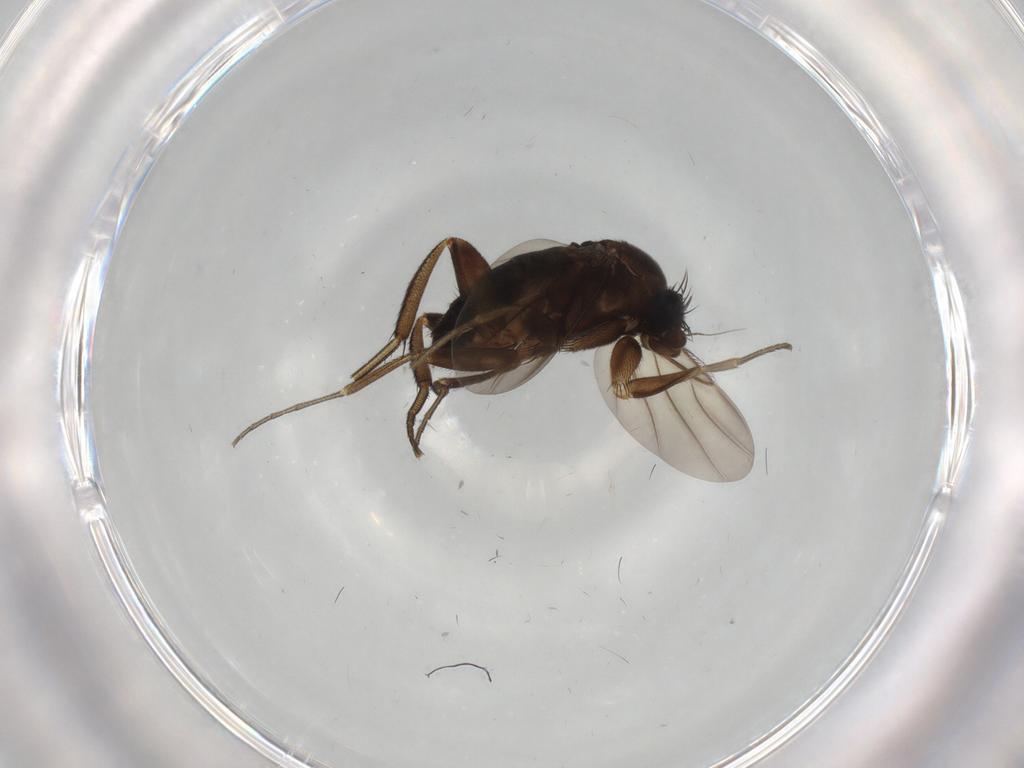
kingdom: Animalia
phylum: Arthropoda
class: Insecta
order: Diptera
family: Phoridae
